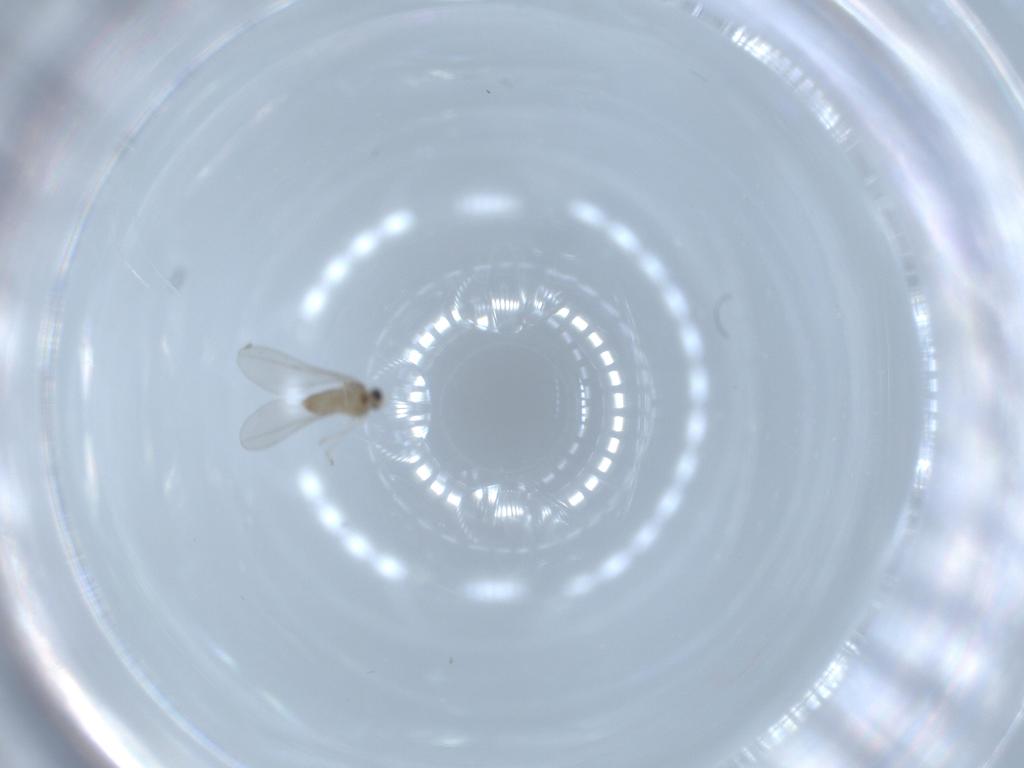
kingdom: Animalia
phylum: Arthropoda
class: Insecta
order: Diptera
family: Cecidomyiidae
